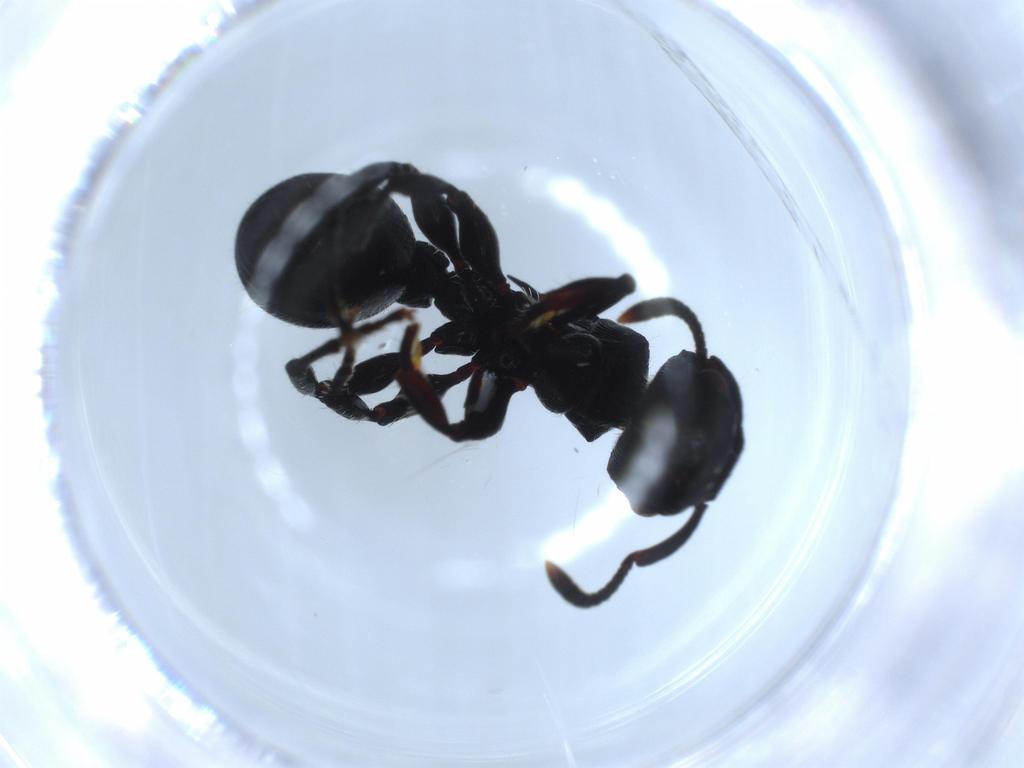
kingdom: Animalia
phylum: Arthropoda
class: Insecta
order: Hymenoptera
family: Formicidae
